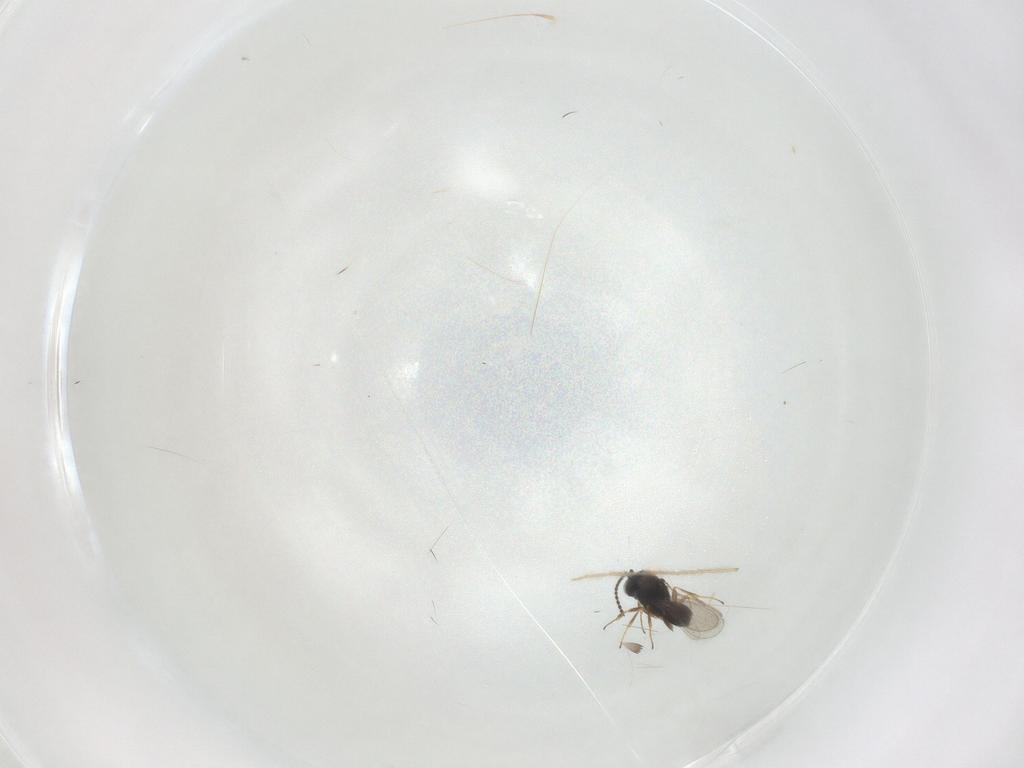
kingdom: Animalia
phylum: Arthropoda
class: Insecta
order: Hymenoptera
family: Scelionidae
